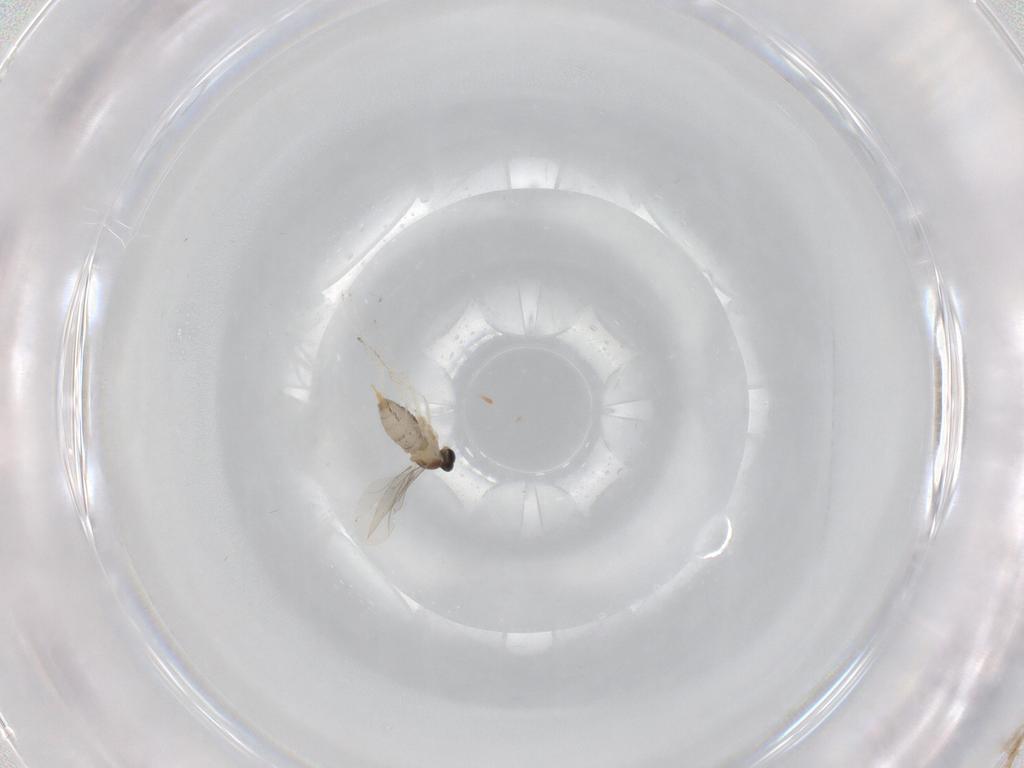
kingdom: Animalia
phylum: Arthropoda
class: Insecta
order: Diptera
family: Cecidomyiidae
